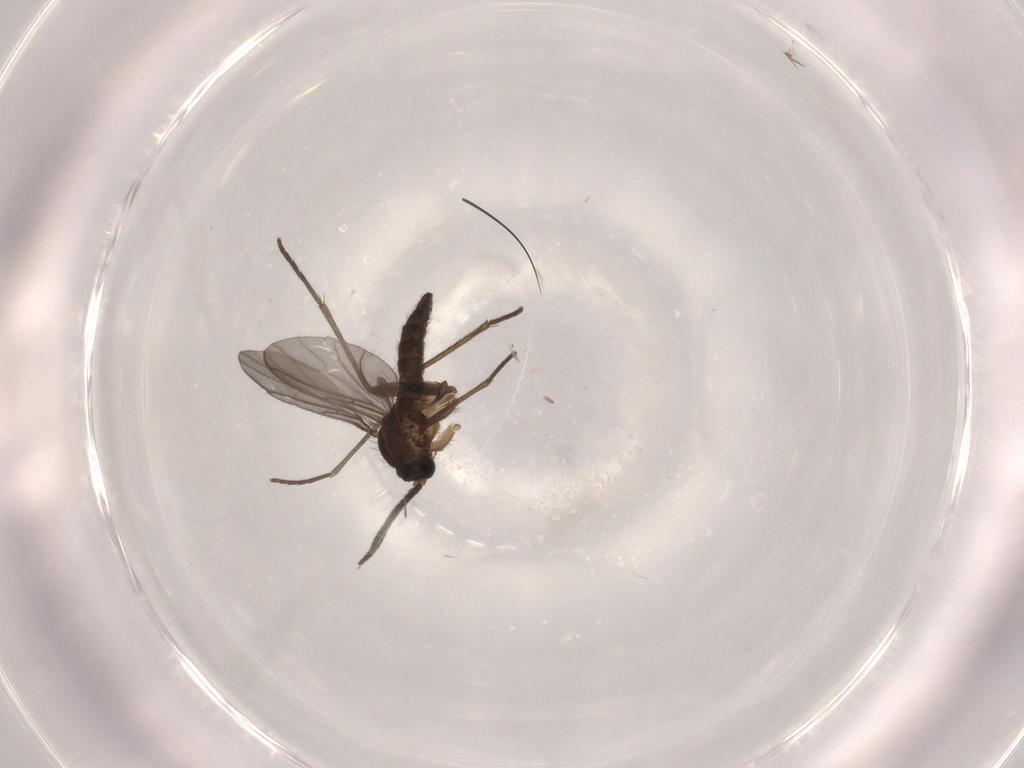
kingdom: Animalia
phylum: Arthropoda
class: Insecta
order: Diptera
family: Sciaridae
